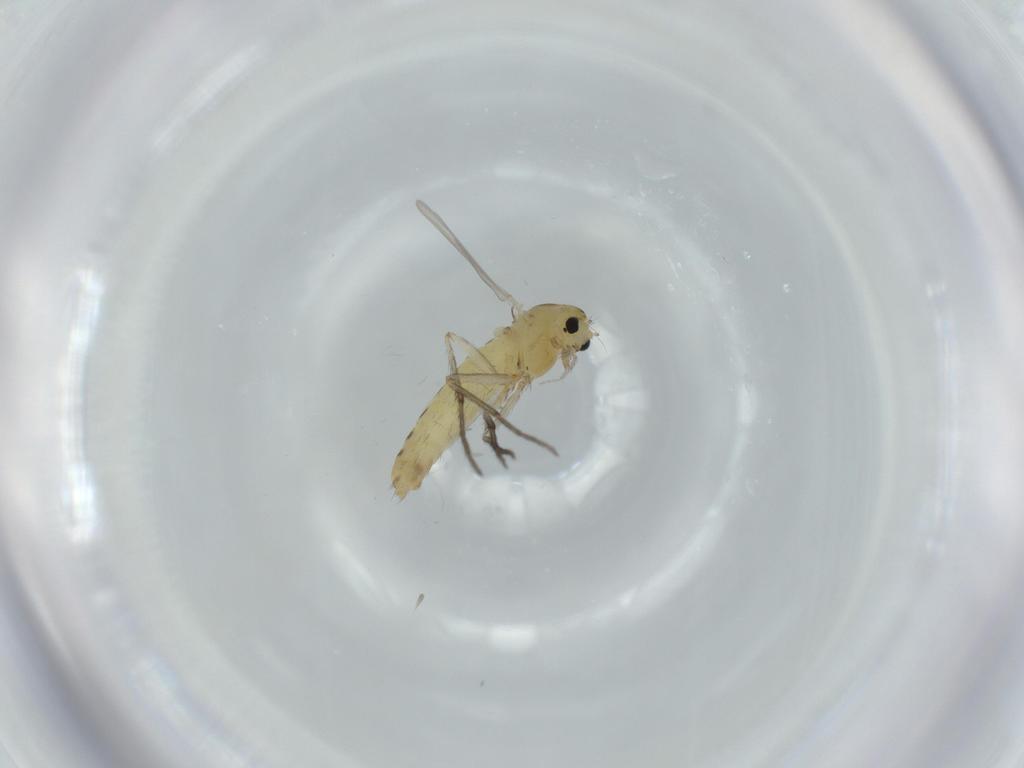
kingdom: Animalia
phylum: Arthropoda
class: Insecta
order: Diptera
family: Chironomidae
